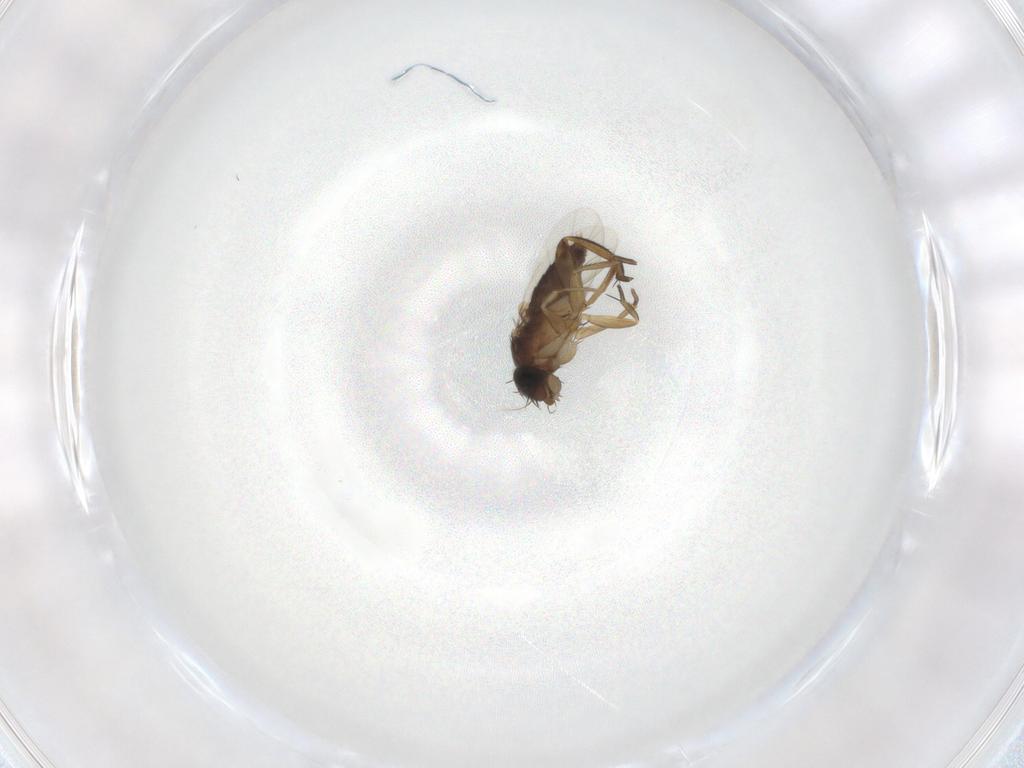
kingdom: Animalia
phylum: Arthropoda
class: Insecta
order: Diptera
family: Phoridae
